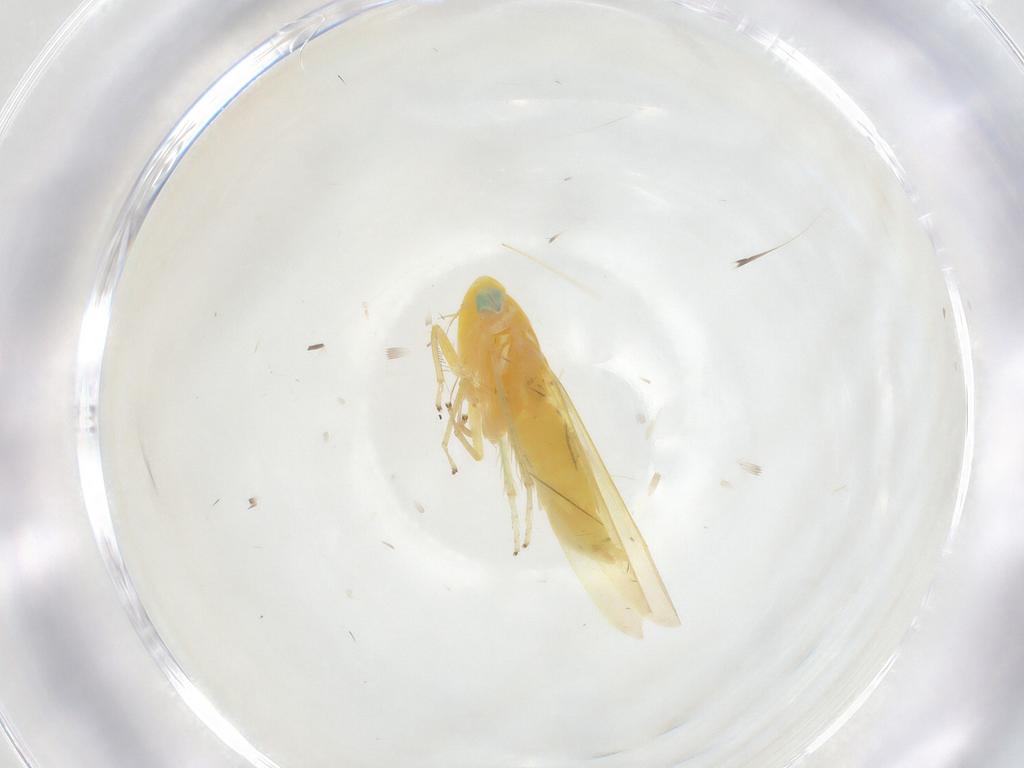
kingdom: Animalia
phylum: Arthropoda
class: Insecta
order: Hemiptera
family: Cicadellidae
